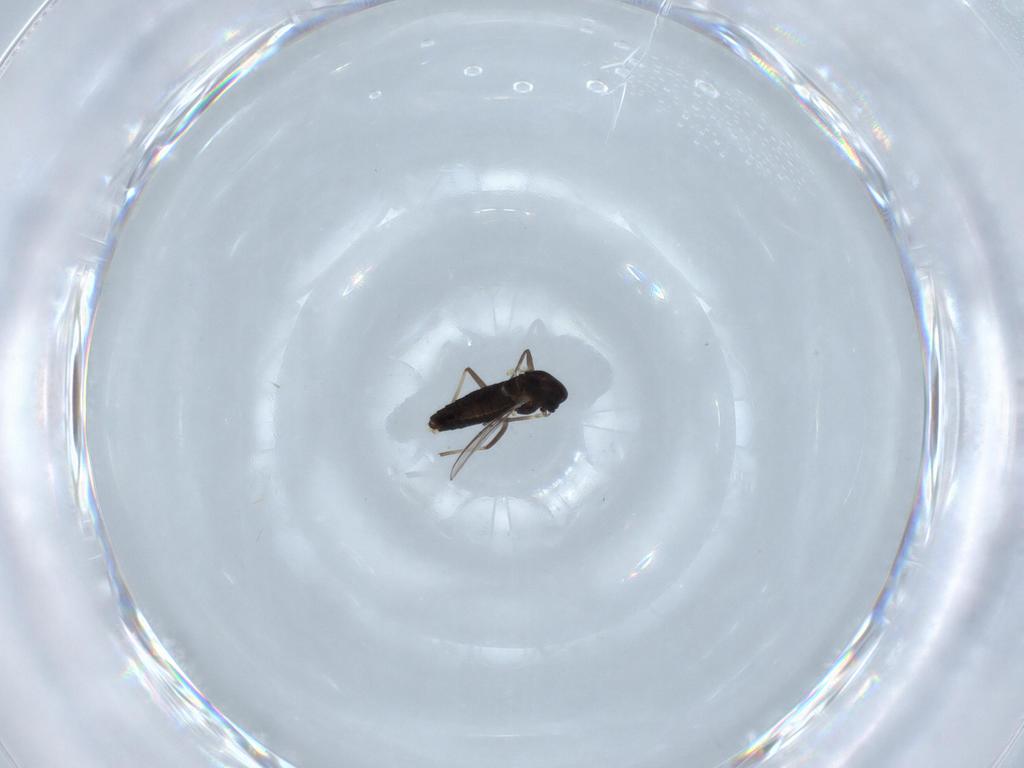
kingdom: Animalia
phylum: Arthropoda
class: Insecta
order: Diptera
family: Chironomidae
